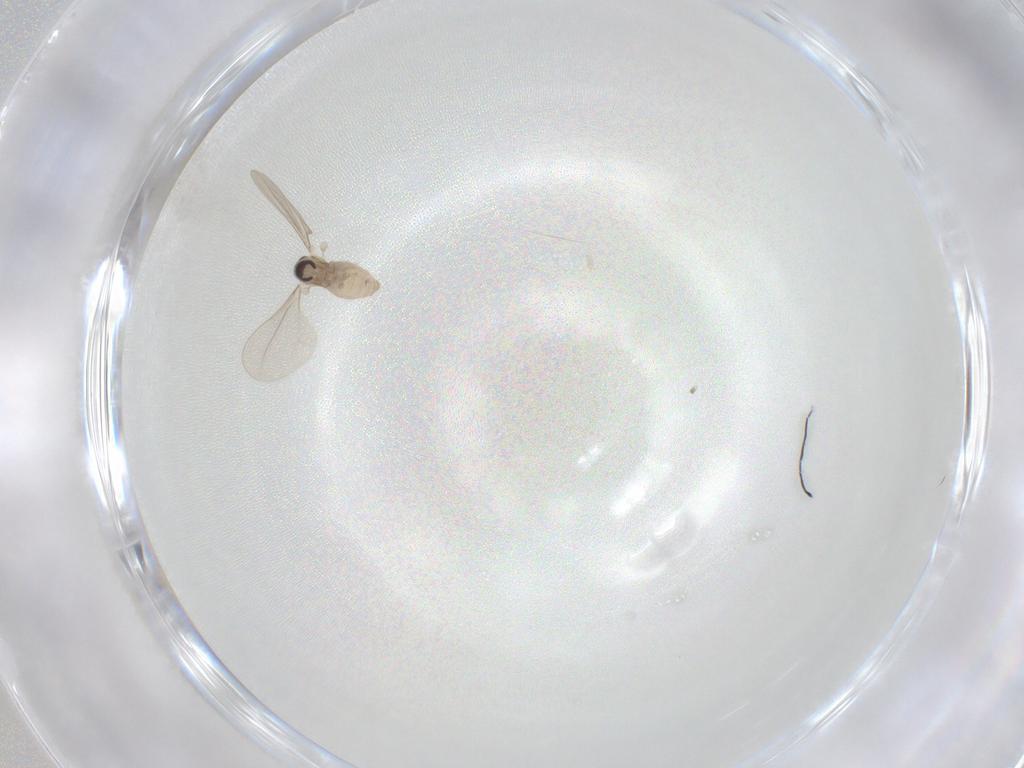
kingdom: Animalia
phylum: Arthropoda
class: Insecta
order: Diptera
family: Cecidomyiidae
